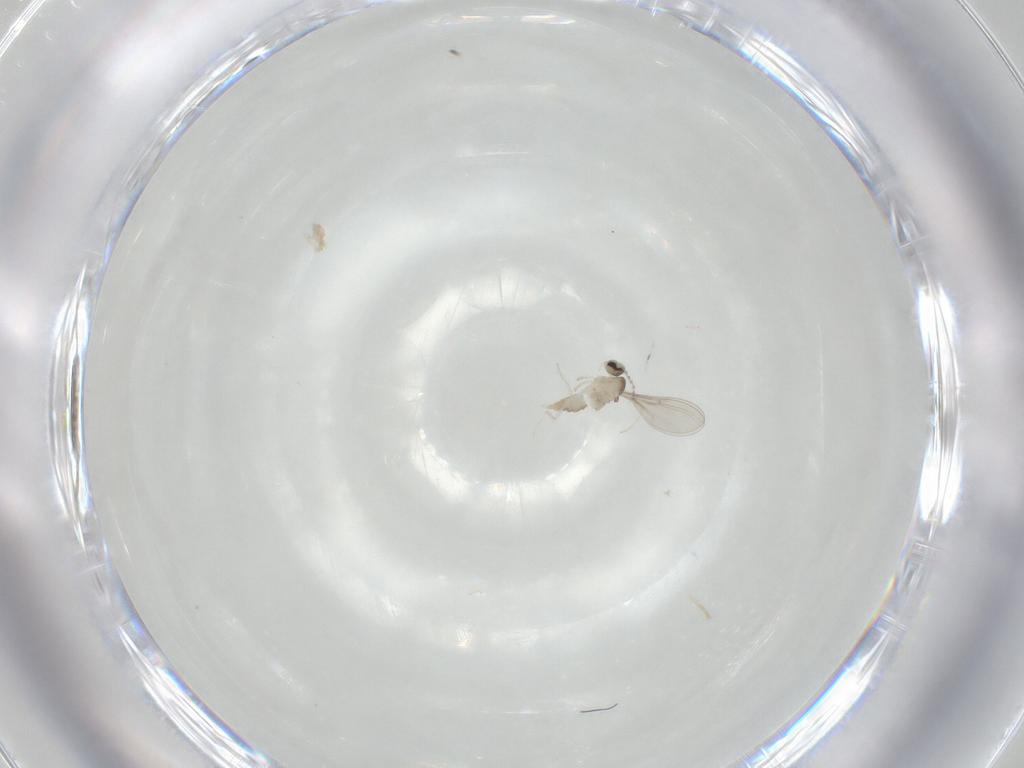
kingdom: Animalia
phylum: Arthropoda
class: Insecta
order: Diptera
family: Cecidomyiidae
